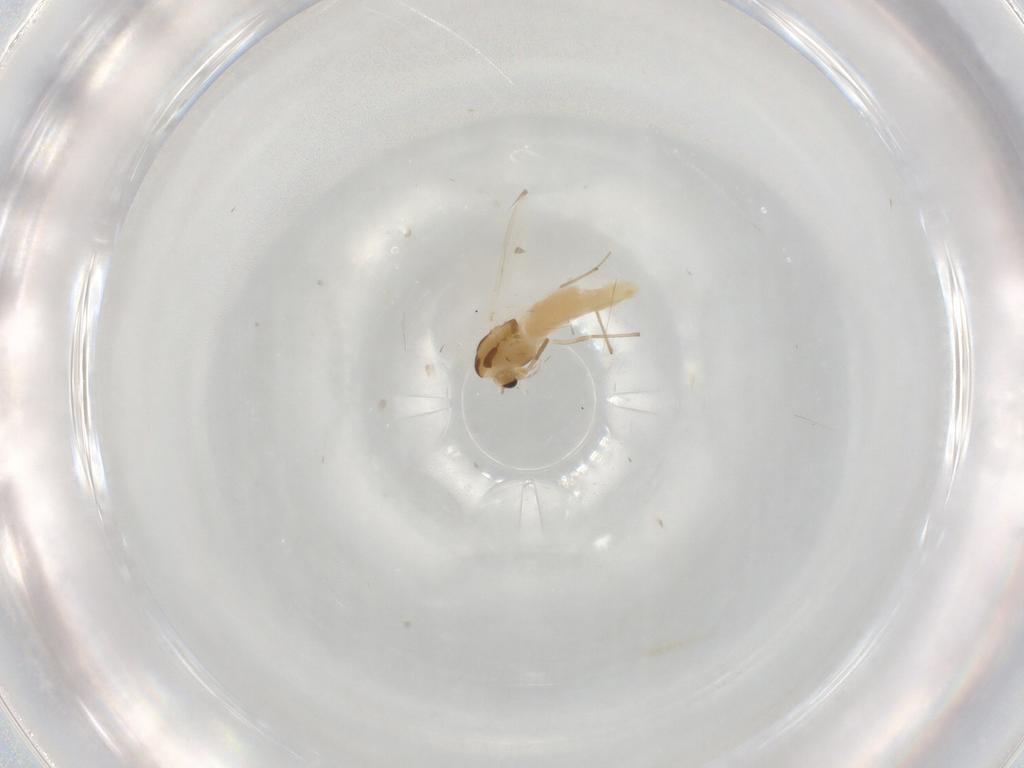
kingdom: Animalia
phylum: Arthropoda
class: Insecta
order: Diptera
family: Chironomidae
